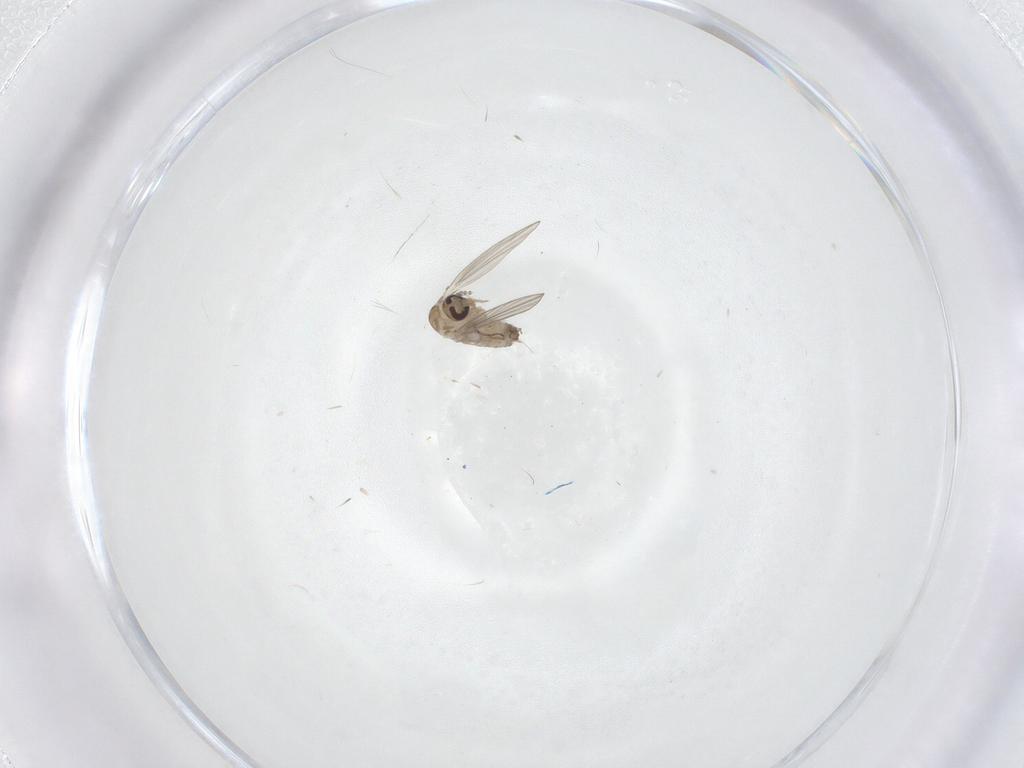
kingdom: Animalia
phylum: Arthropoda
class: Insecta
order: Diptera
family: Psychodidae
